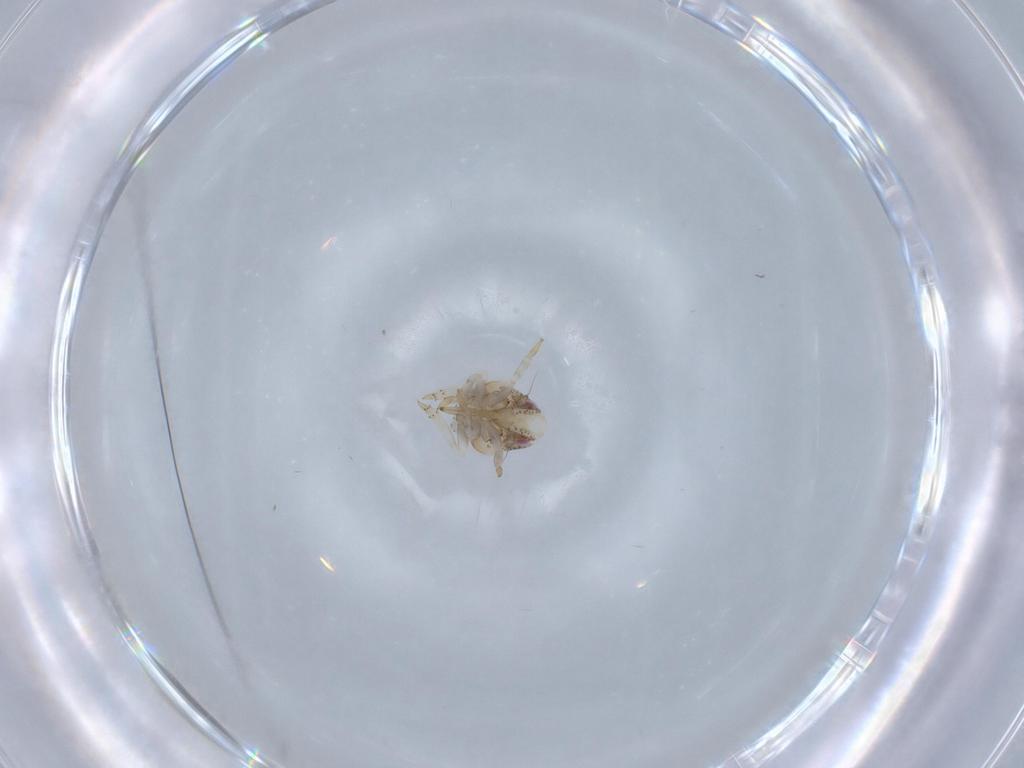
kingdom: Animalia
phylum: Arthropoda
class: Insecta
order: Hemiptera
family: Acanaloniidae
